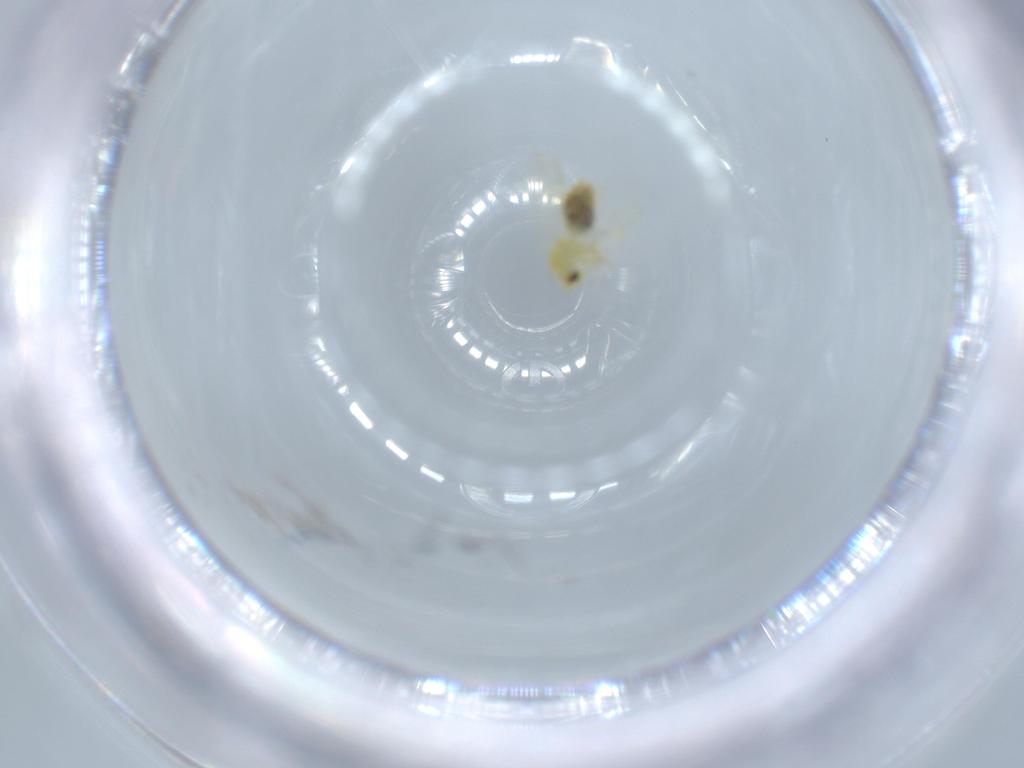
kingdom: Animalia
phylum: Arthropoda
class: Insecta
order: Hemiptera
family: Aleyrodidae
